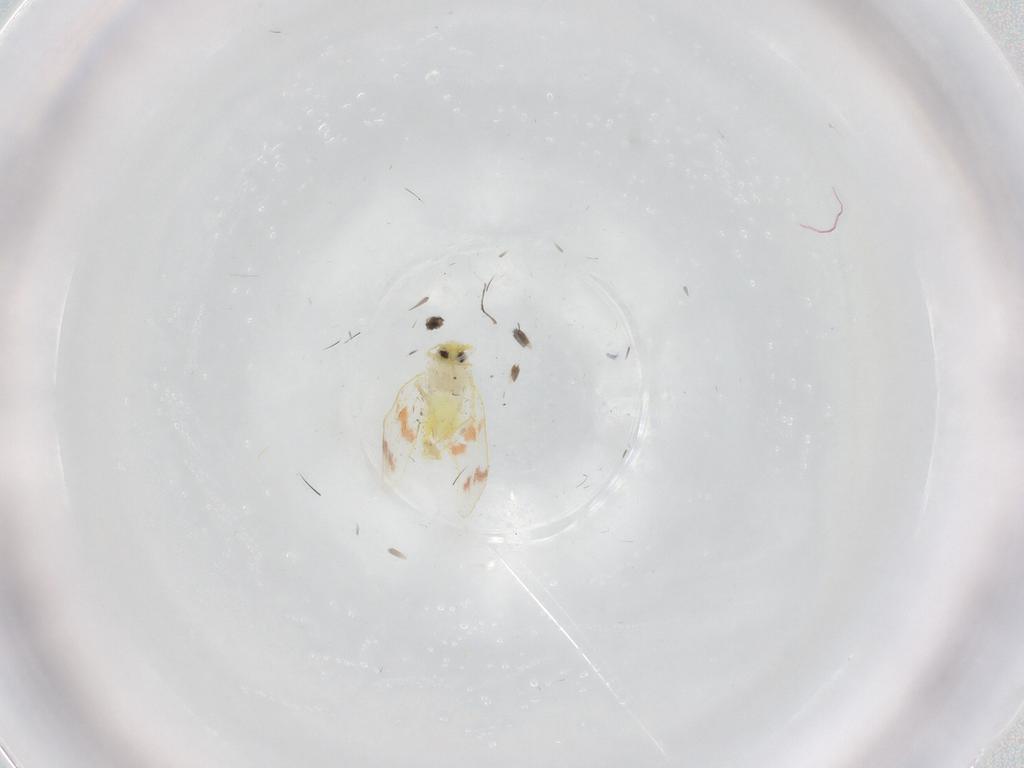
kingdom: Animalia
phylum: Arthropoda
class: Insecta
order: Hemiptera
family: Aleyrodidae
